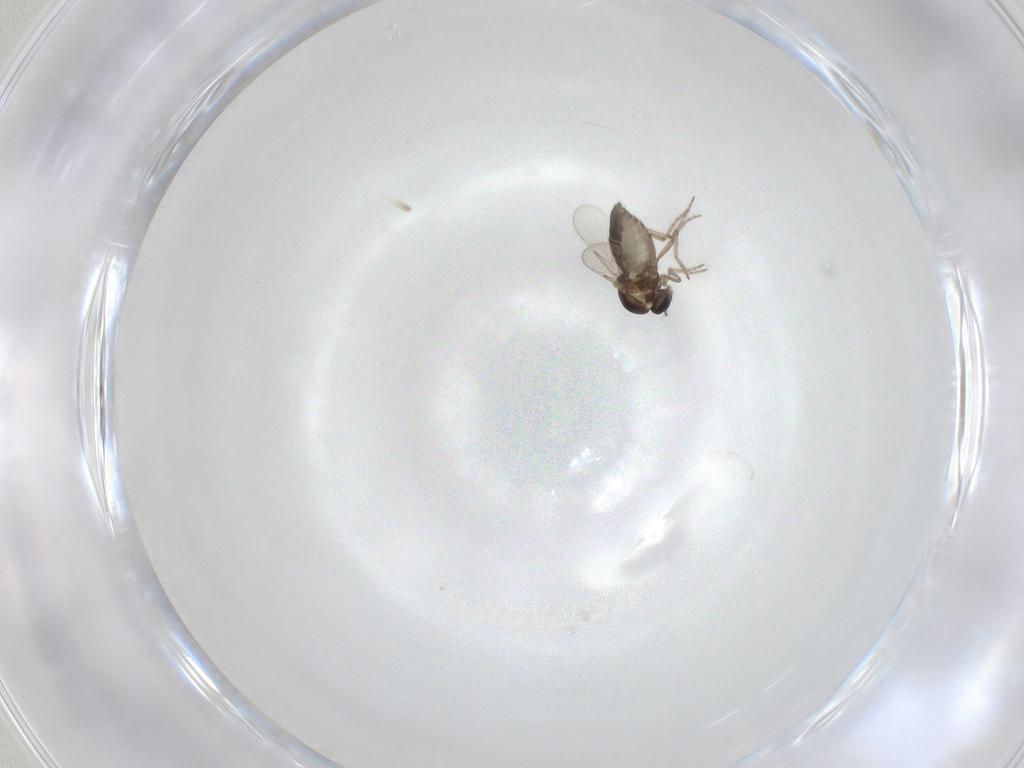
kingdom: Animalia
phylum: Arthropoda
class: Insecta
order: Diptera
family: Ceratopogonidae
